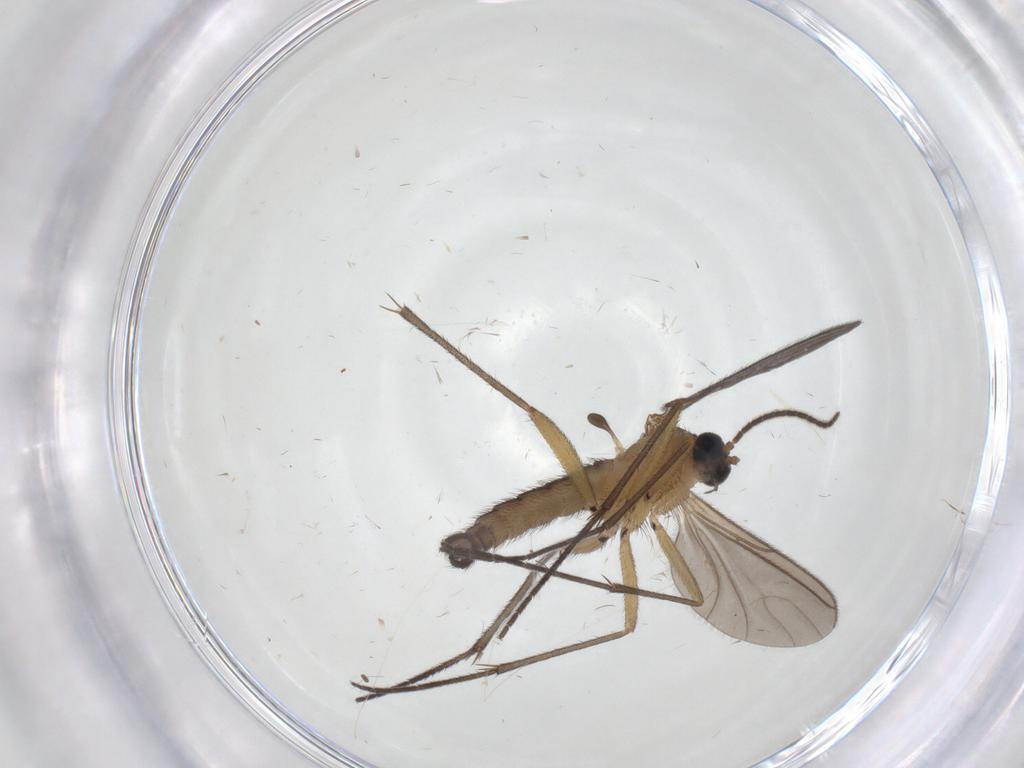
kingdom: Animalia
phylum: Arthropoda
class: Insecta
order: Diptera
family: Sciaridae
